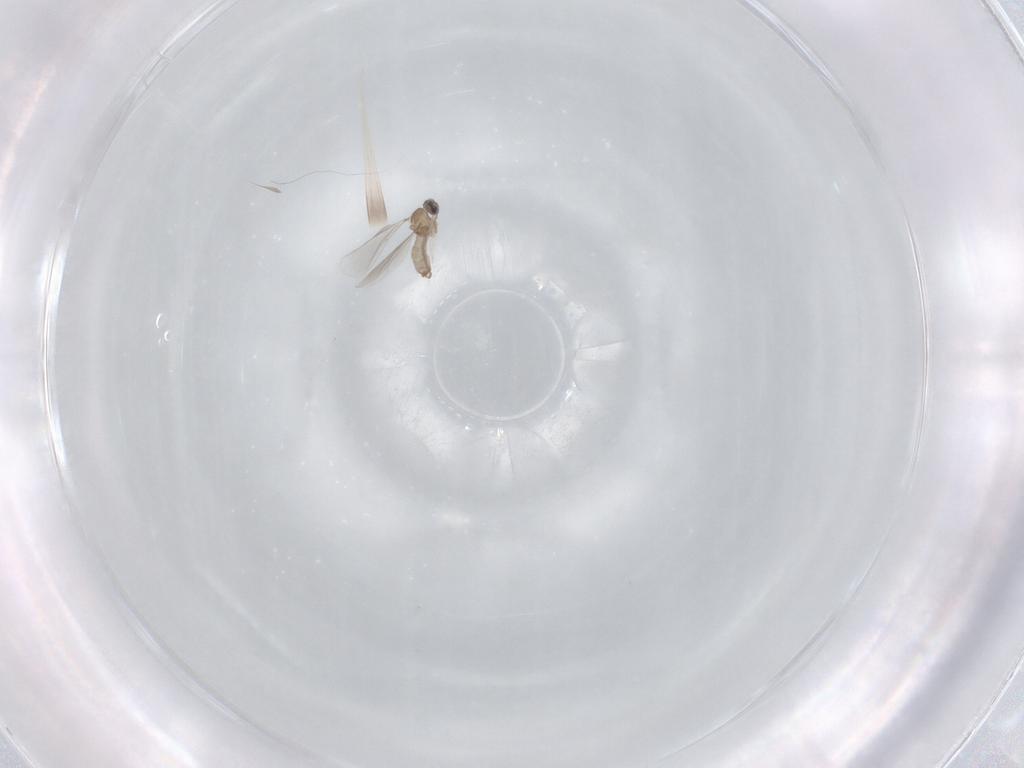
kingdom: Animalia
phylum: Arthropoda
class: Insecta
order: Diptera
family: Cecidomyiidae
